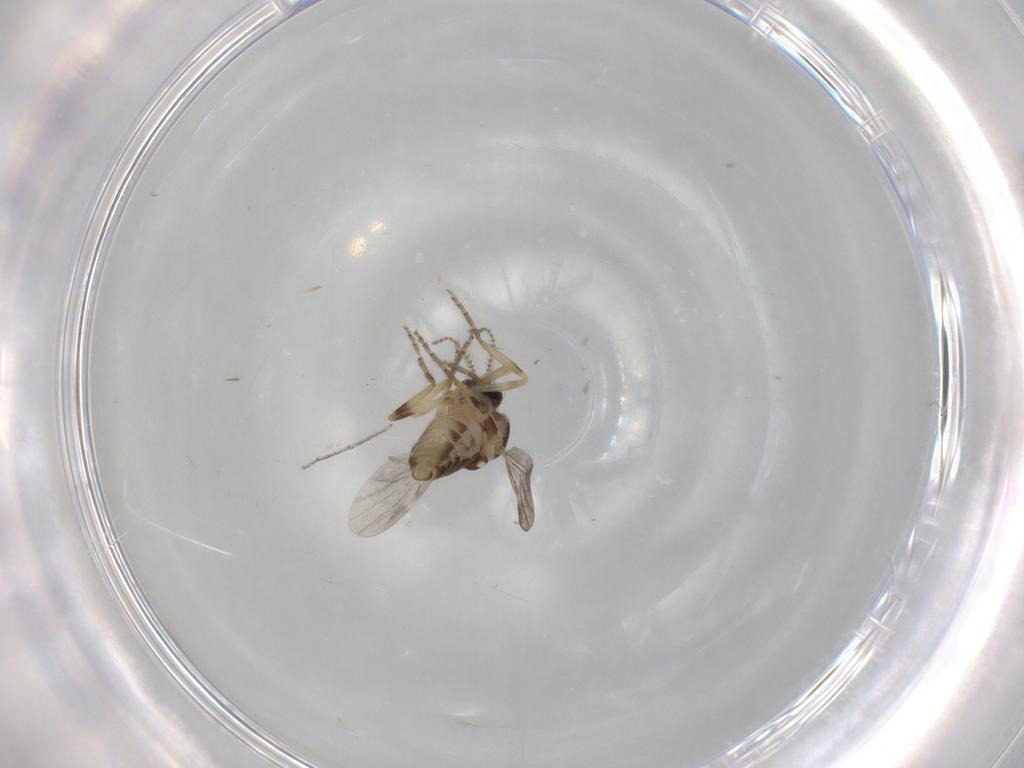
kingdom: Animalia
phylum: Arthropoda
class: Insecta
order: Diptera
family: Ceratopogonidae
